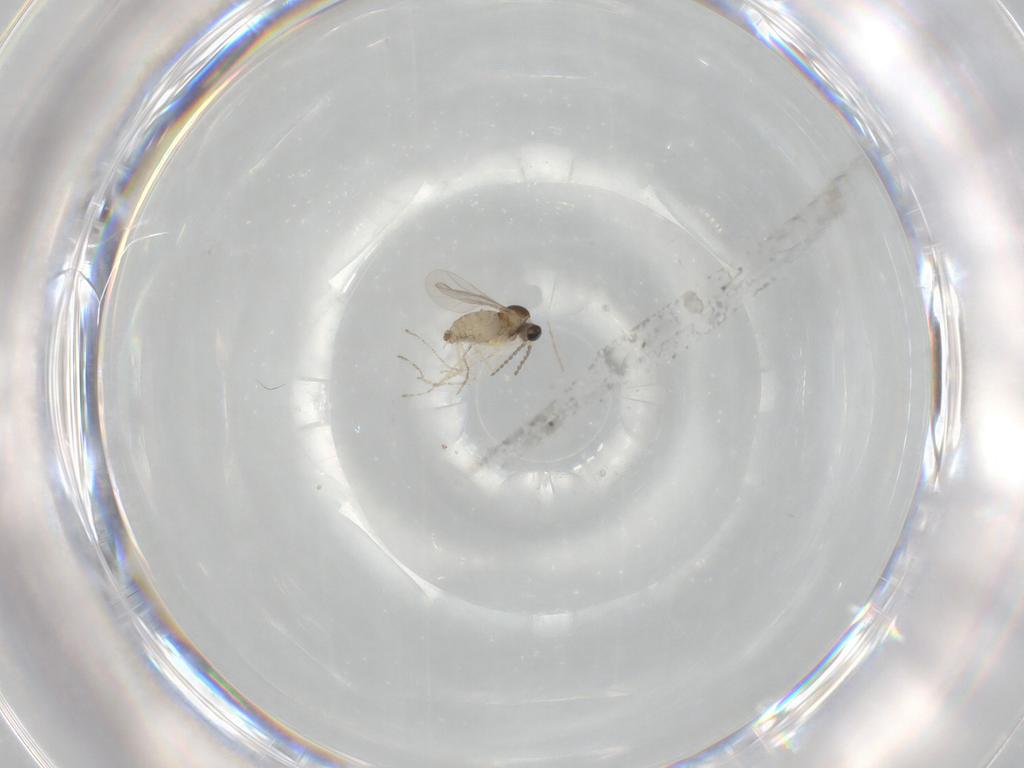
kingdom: Animalia
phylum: Arthropoda
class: Insecta
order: Diptera
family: Cecidomyiidae
